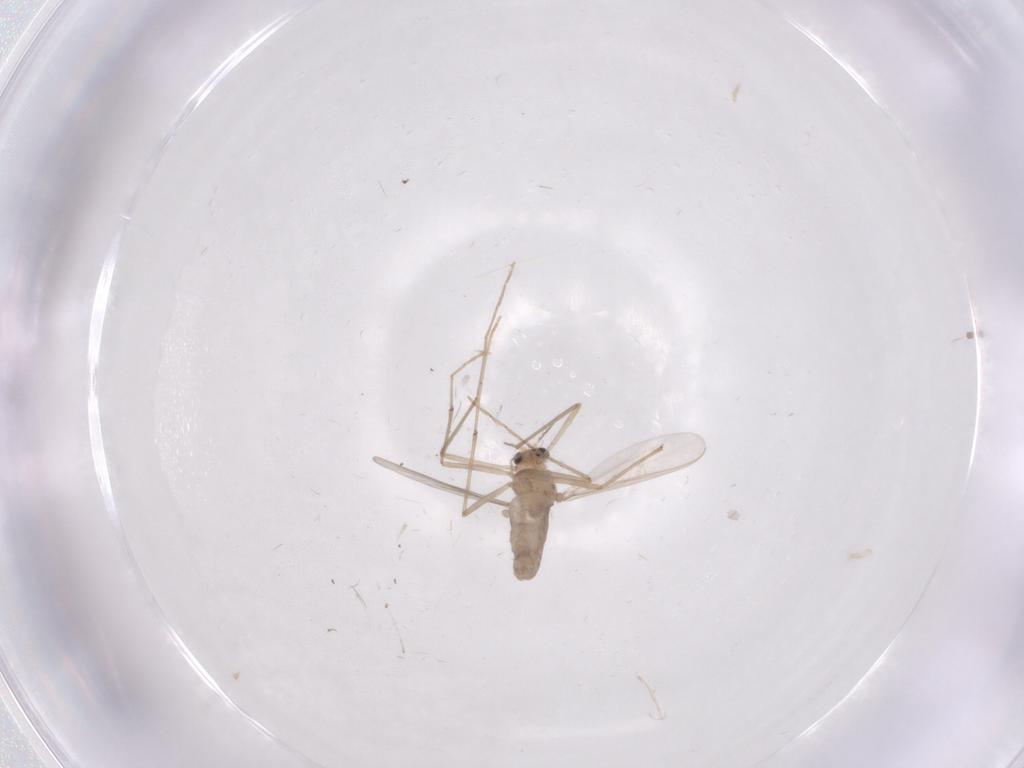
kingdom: Animalia
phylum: Arthropoda
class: Insecta
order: Diptera
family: Chironomidae
